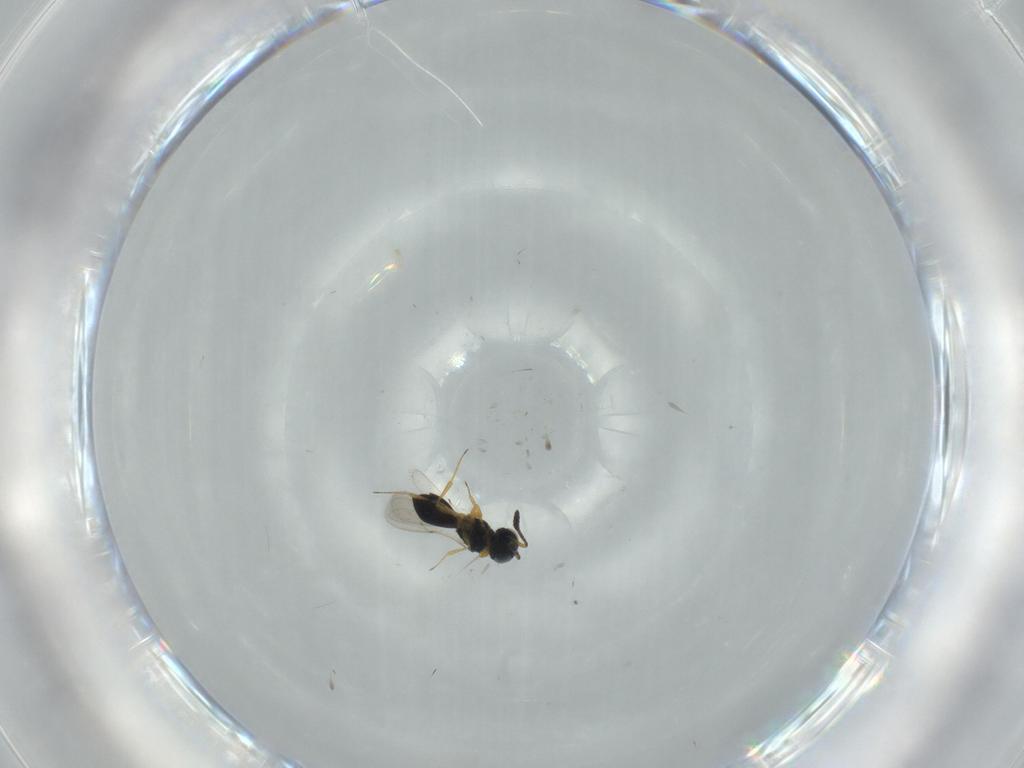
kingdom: Animalia
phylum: Arthropoda
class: Insecta
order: Hymenoptera
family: Scelionidae
